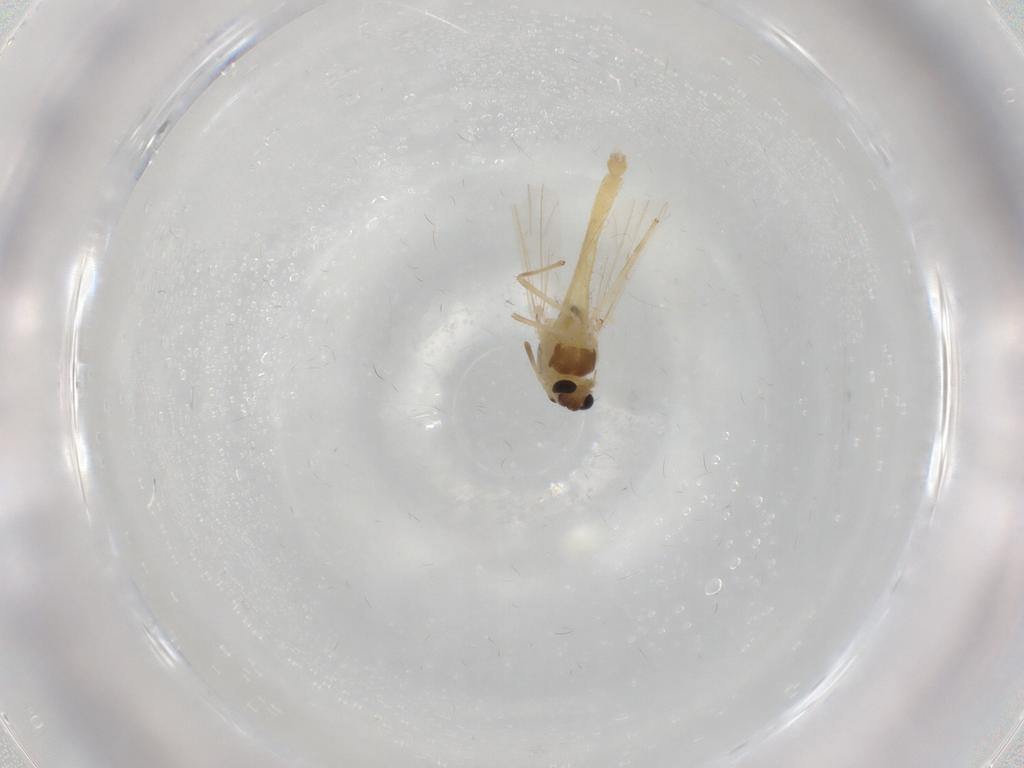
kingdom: Animalia
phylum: Arthropoda
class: Insecta
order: Diptera
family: Chironomidae
